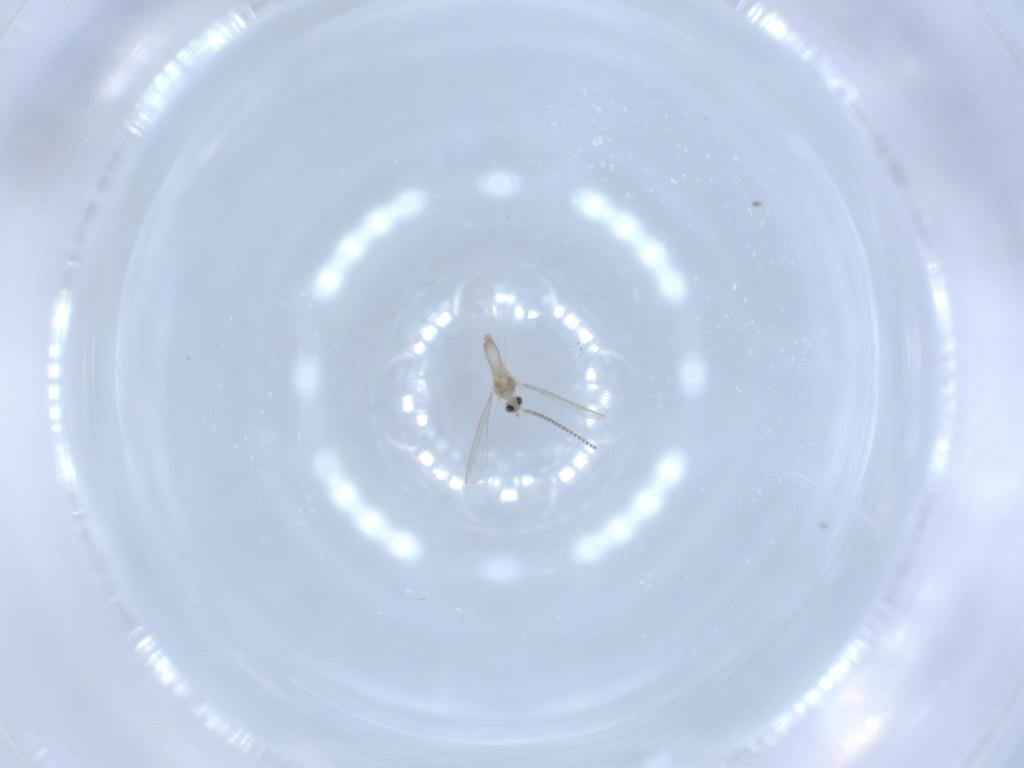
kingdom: Animalia
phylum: Arthropoda
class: Insecta
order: Diptera
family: Cecidomyiidae
